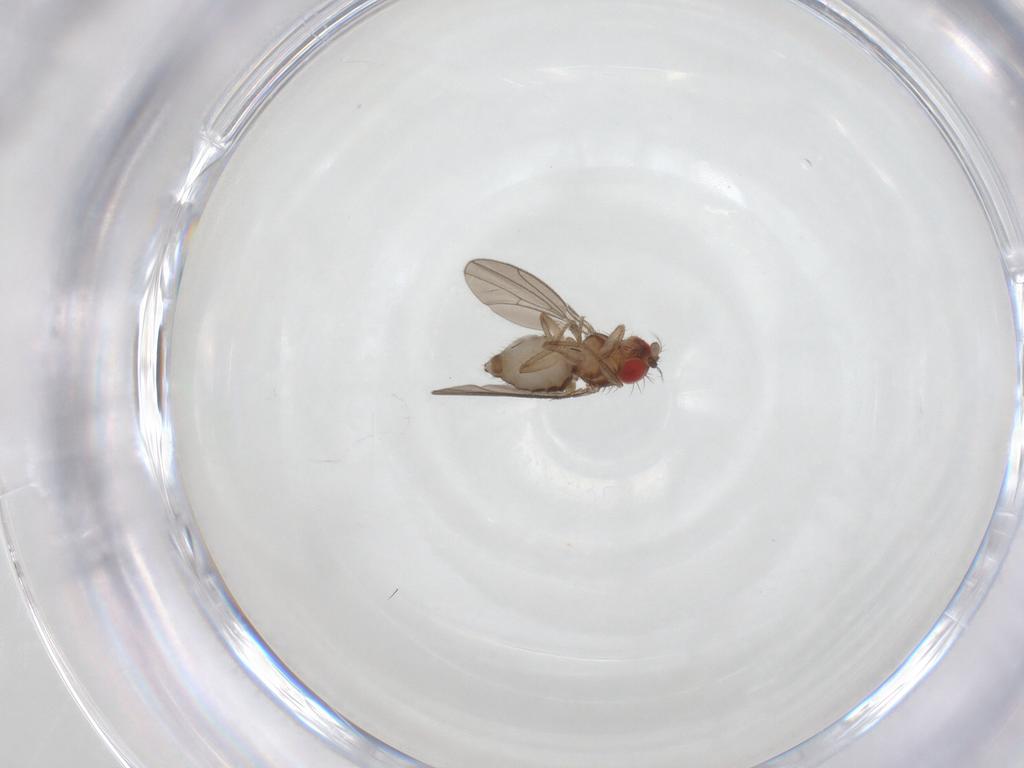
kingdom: Animalia
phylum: Arthropoda
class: Insecta
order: Diptera
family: Drosophilidae
